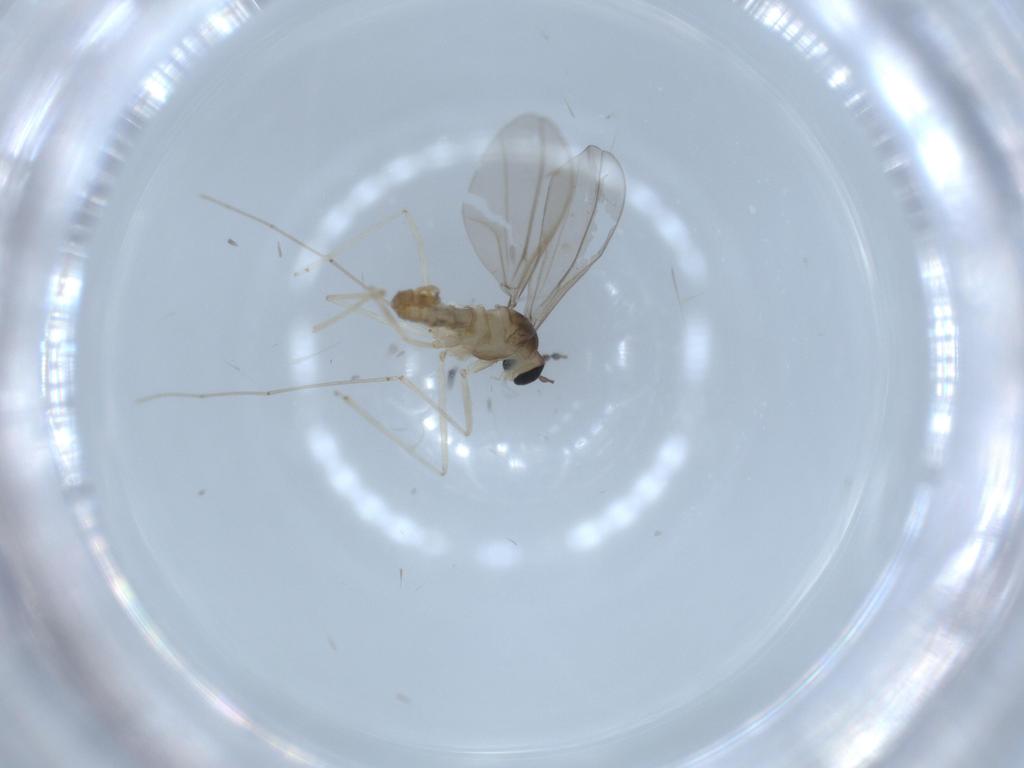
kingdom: Animalia
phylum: Arthropoda
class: Insecta
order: Diptera
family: Cecidomyiidae
